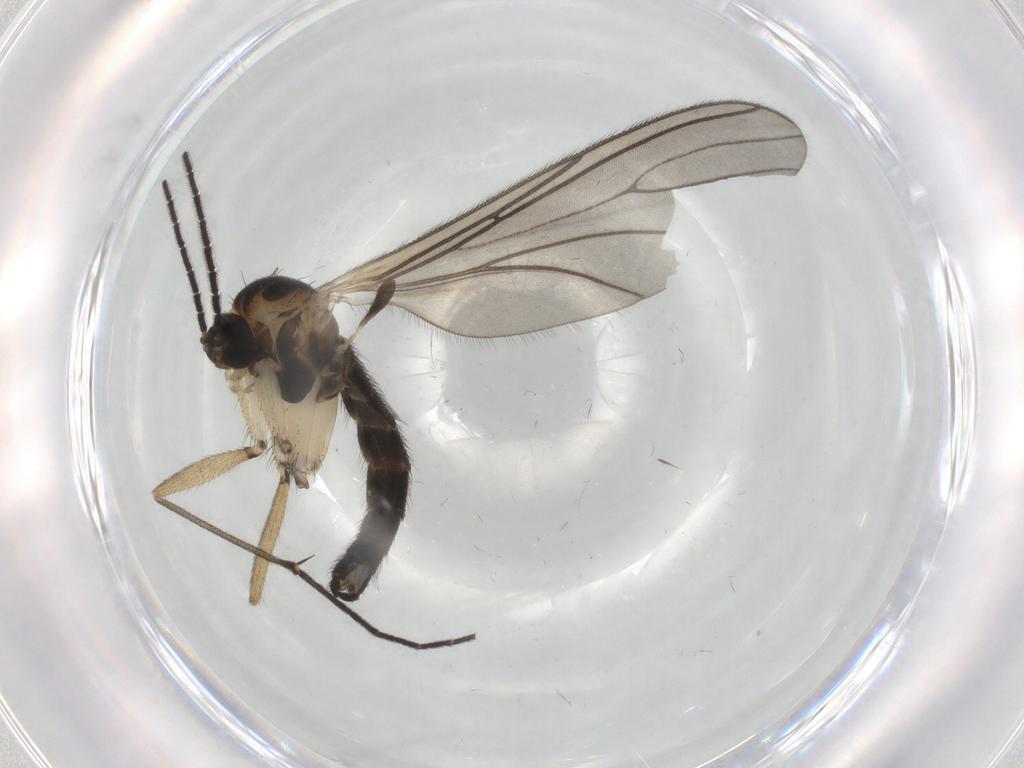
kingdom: Animalia
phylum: Arthropoda
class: Insecta
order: Diptera
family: Sciaridae
